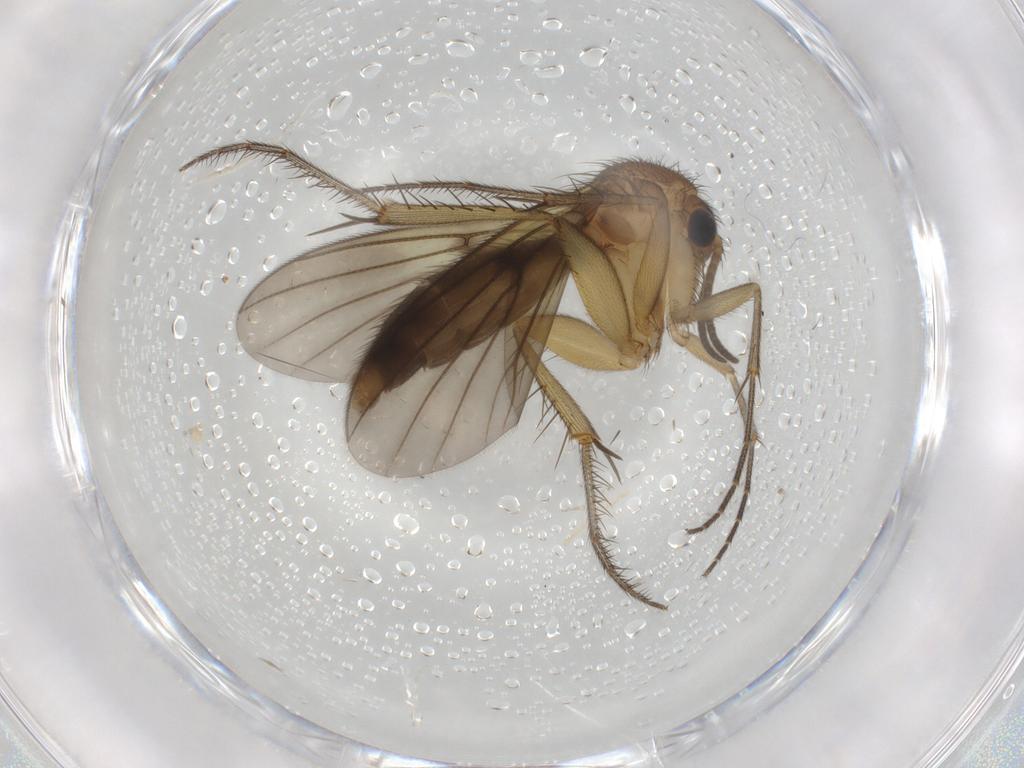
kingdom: Animalia
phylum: Arthropoda
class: Insecta
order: Diptera
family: Mycetophilidae
